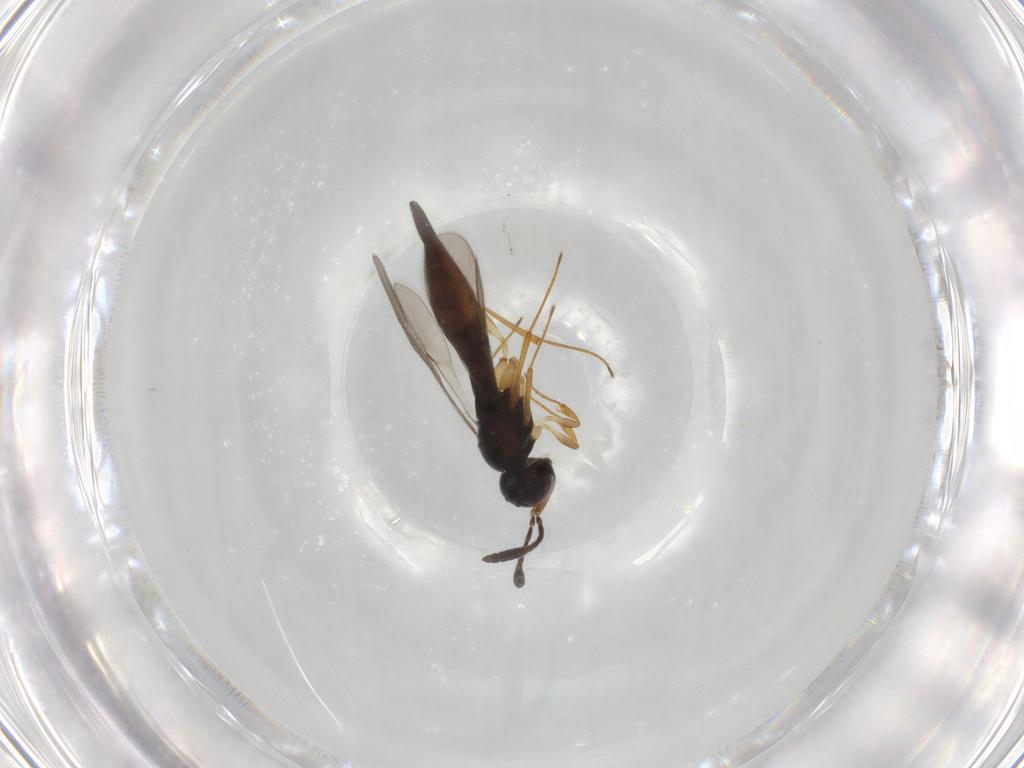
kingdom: Animalia
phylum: Arthropoda
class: Insecta
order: Hymenoptera
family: Scelionidae
